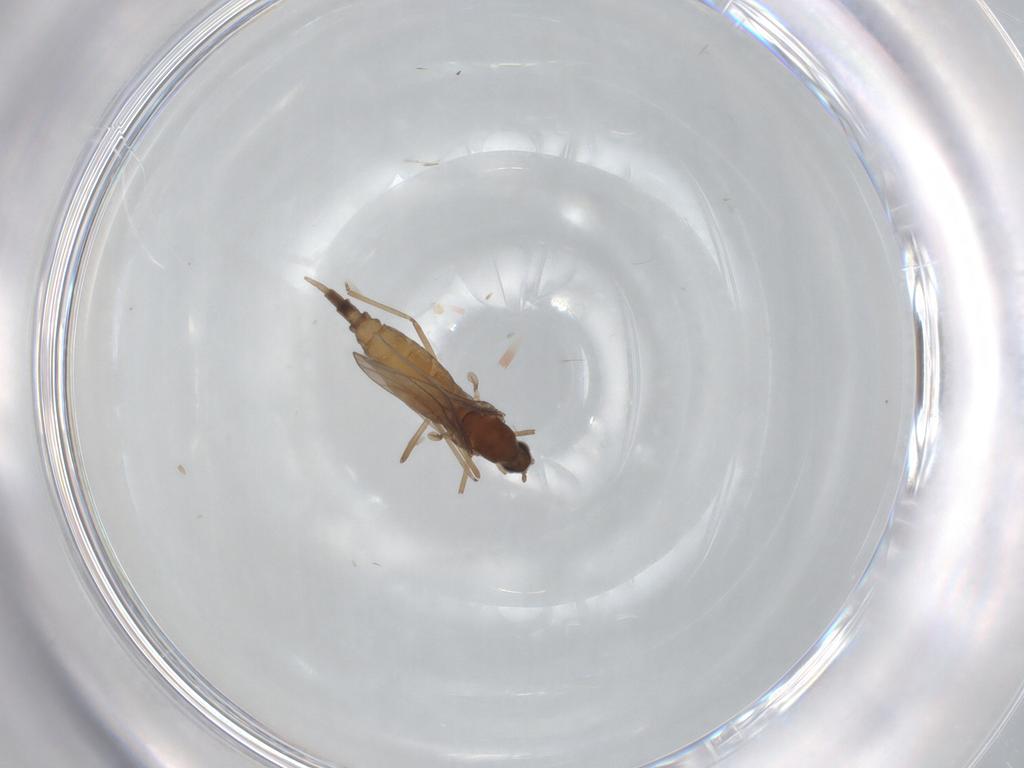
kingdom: Animalia
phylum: Arthropoda
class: Insecta
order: Diptera
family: Cecidomyiidae
